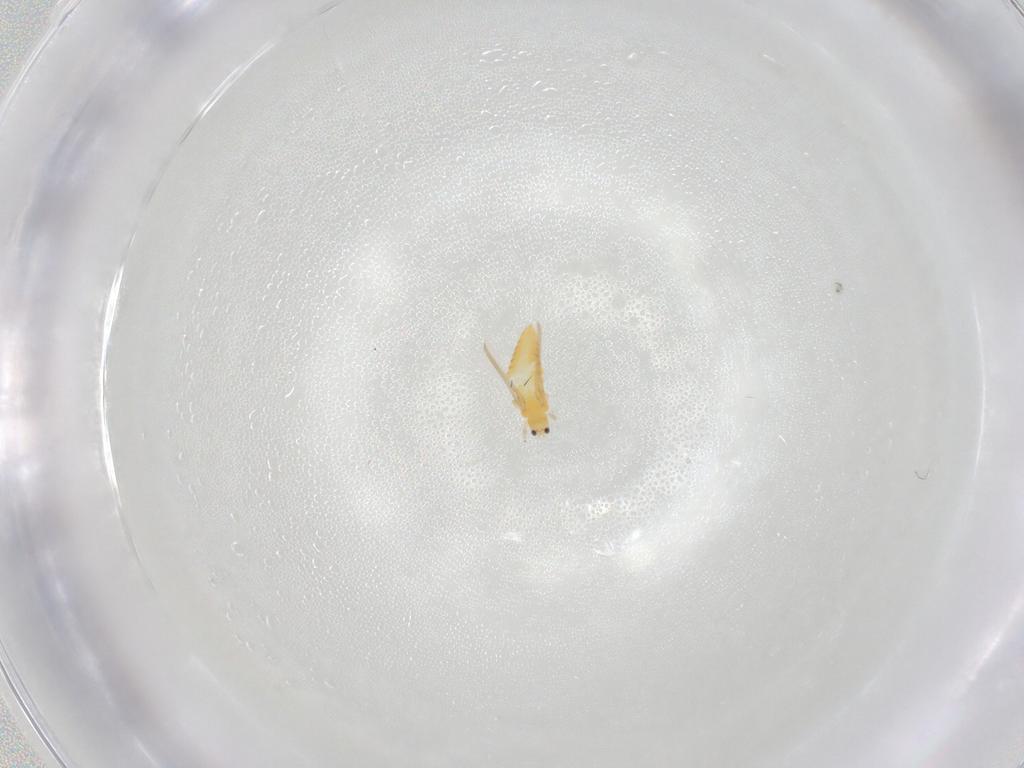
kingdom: Animalia
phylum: Arthropoda
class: Insecta
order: Thysanoptera
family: Thripidae
